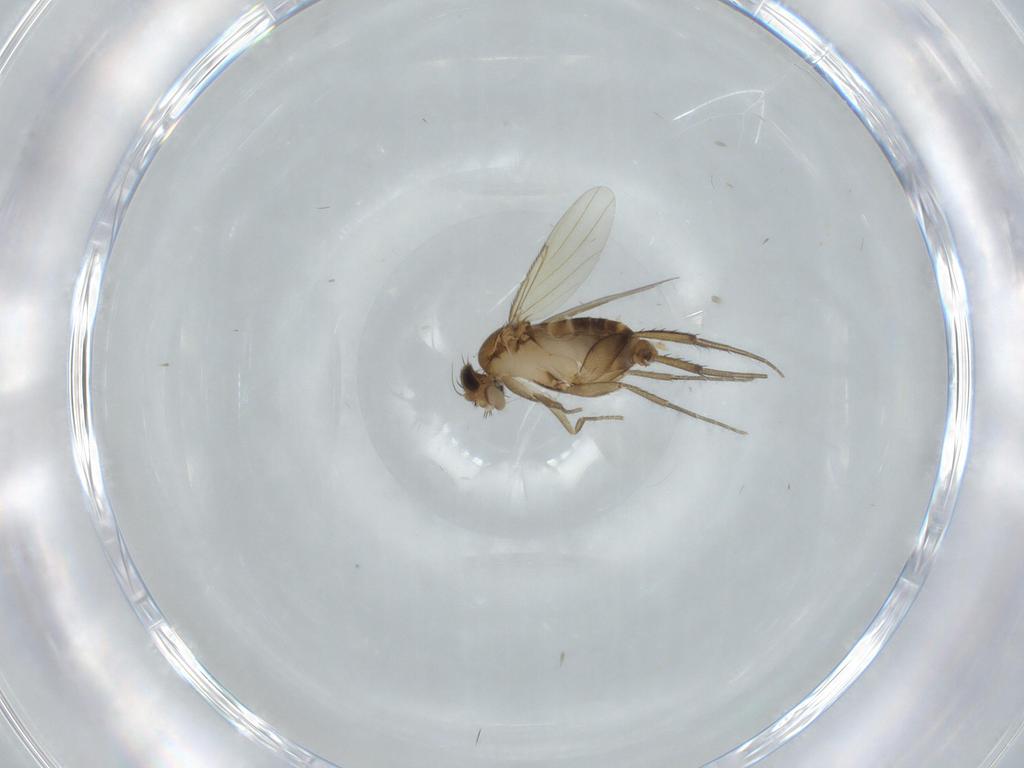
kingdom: Animalia
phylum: Arthropoda
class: Insecta
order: Diptera
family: Phoridae
